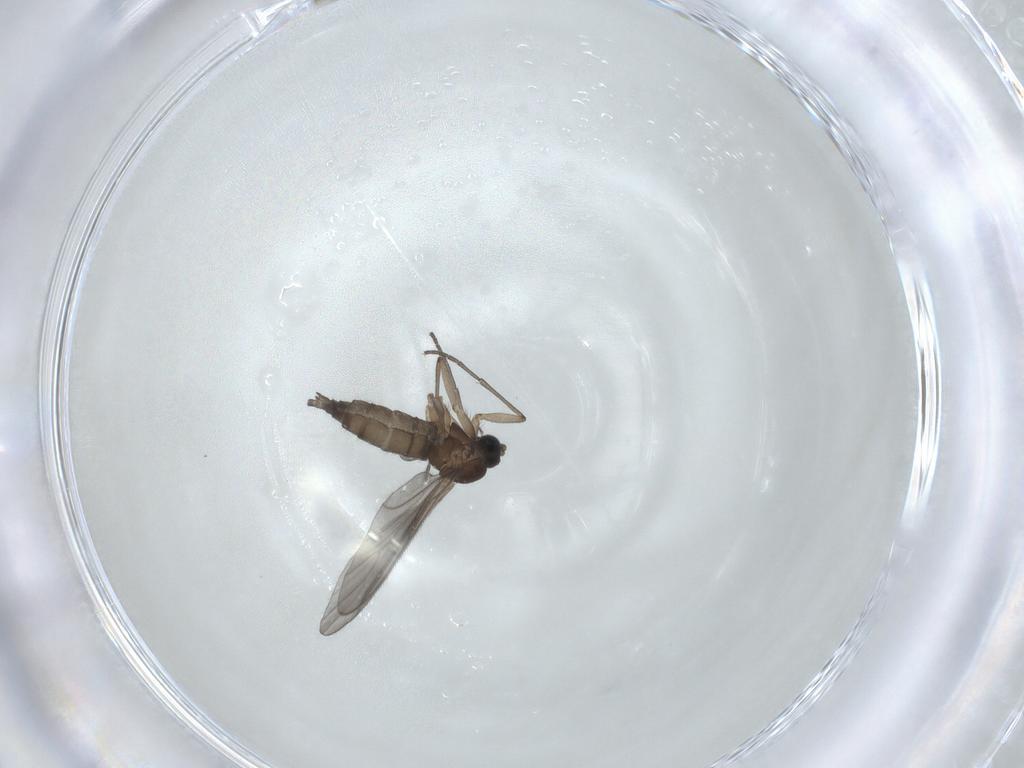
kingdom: Animalia
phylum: Arthropoda
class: Insecta
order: Diptera
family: Sciaridae
